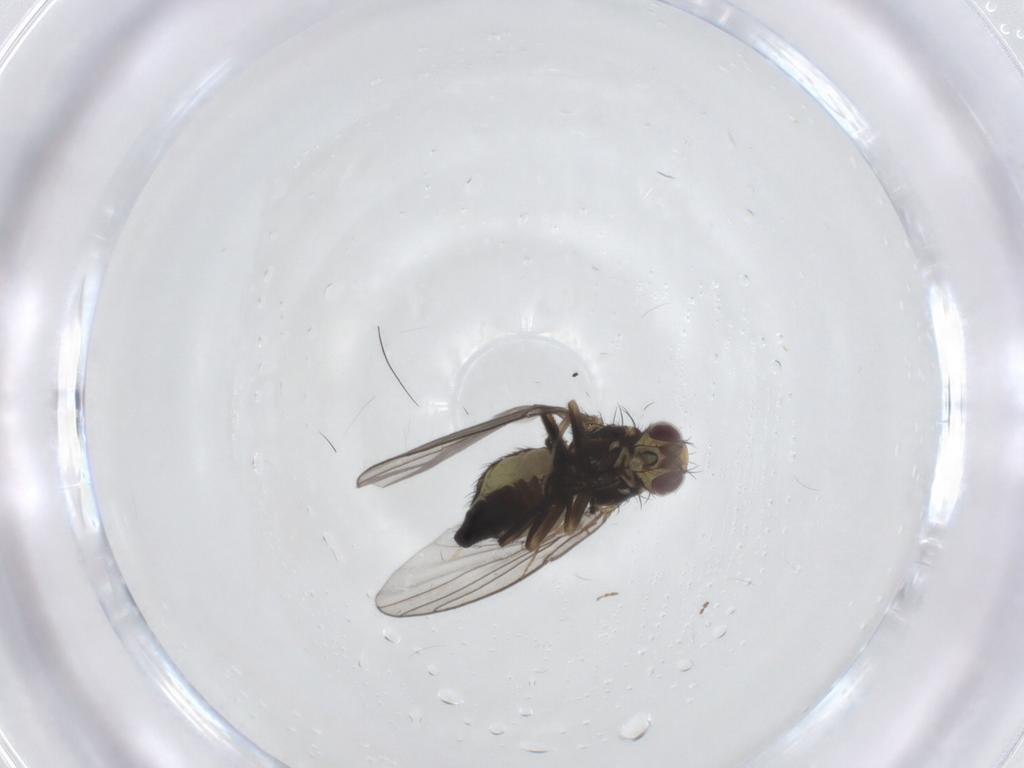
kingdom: Animalia
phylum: Arthropoda
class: Insecta
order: Diptera
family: Agromyzidae
